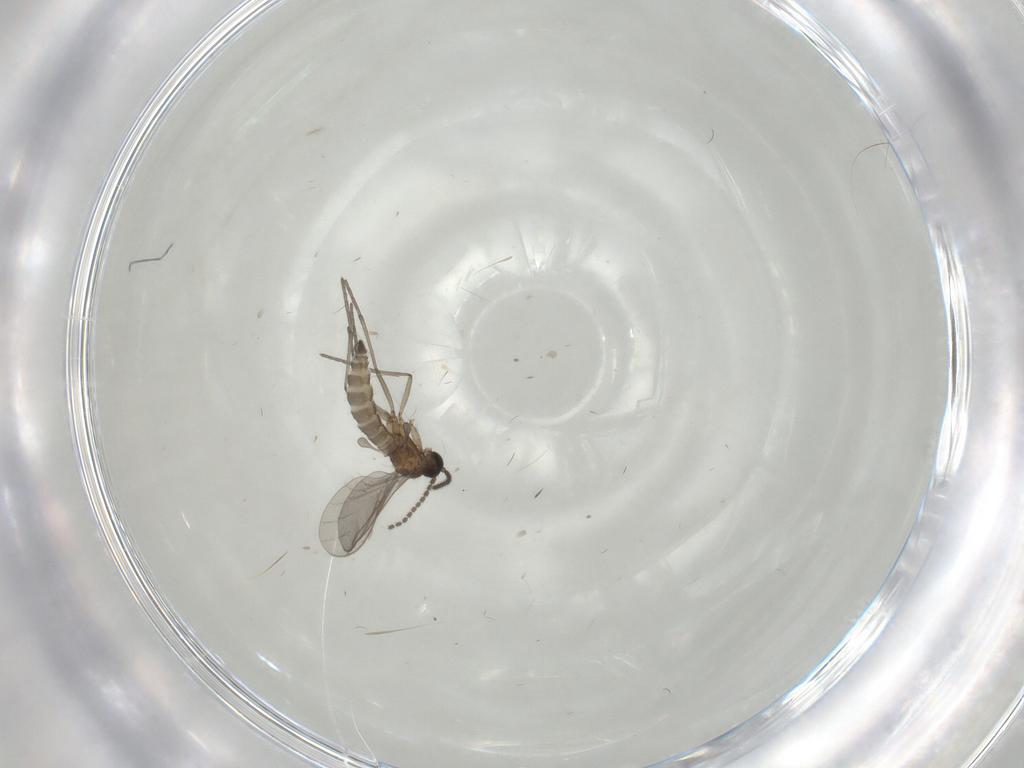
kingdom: Animalia
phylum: Arthropoda
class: Insecta
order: Diptera
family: Sciaridae
